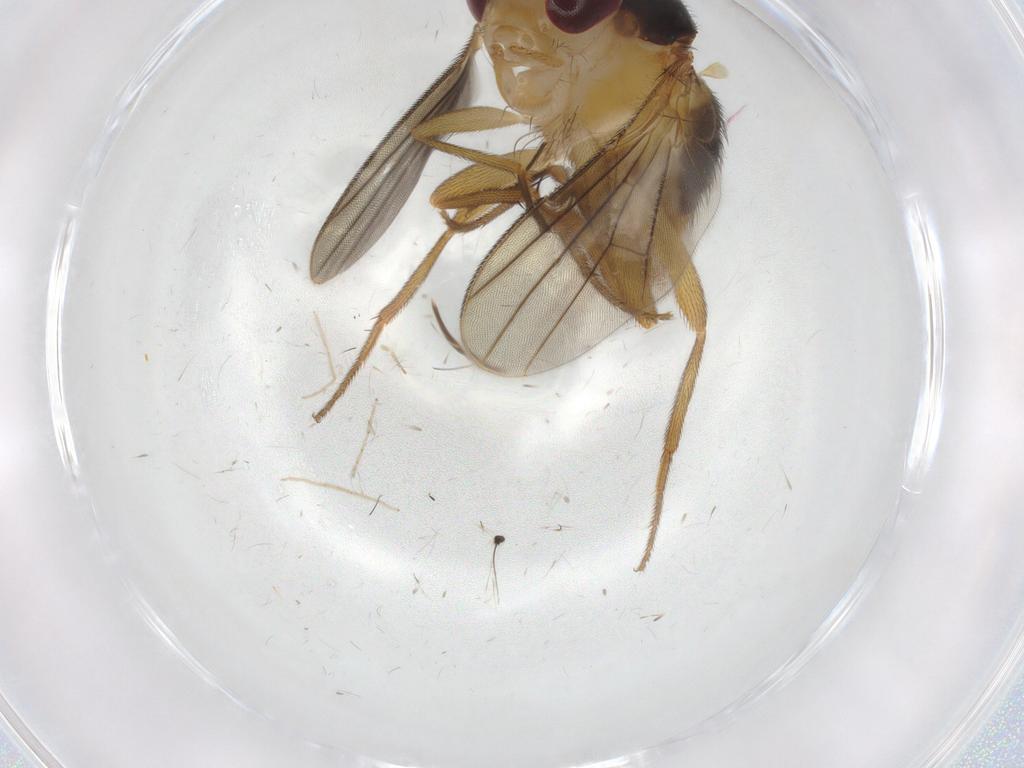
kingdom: Animalia
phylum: Arthropoda
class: Insecta
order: Diptera
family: Clusiidae
